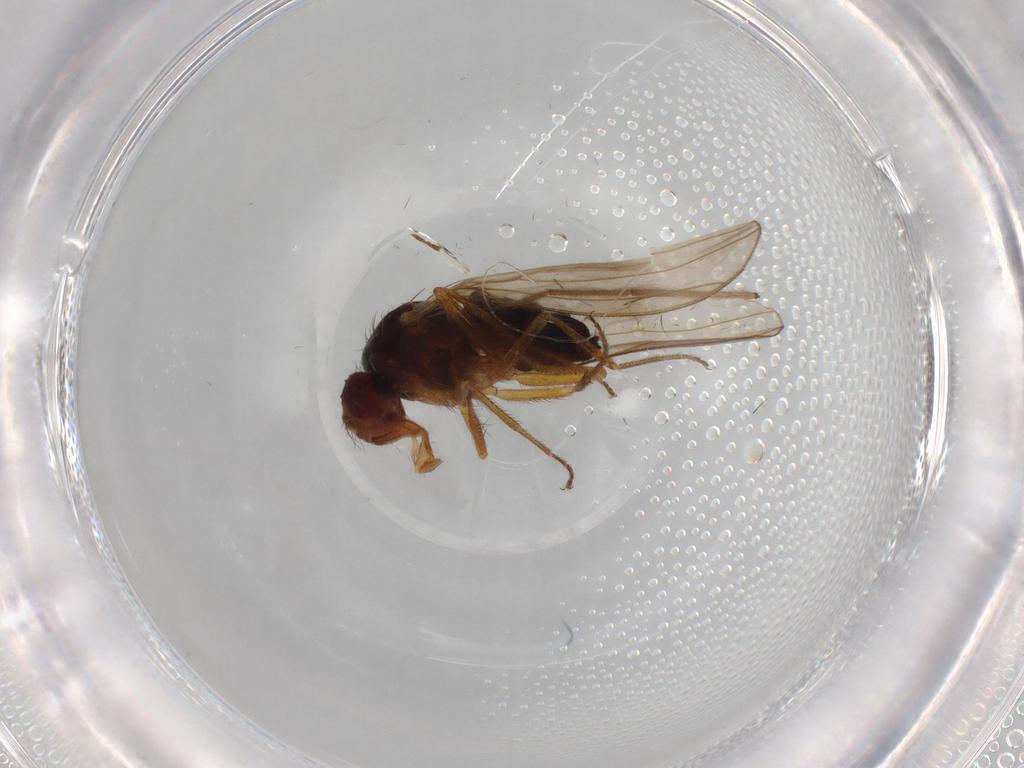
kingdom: Animalia
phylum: Arthropoda
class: Insecta
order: Diptera
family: Drosophilidae
